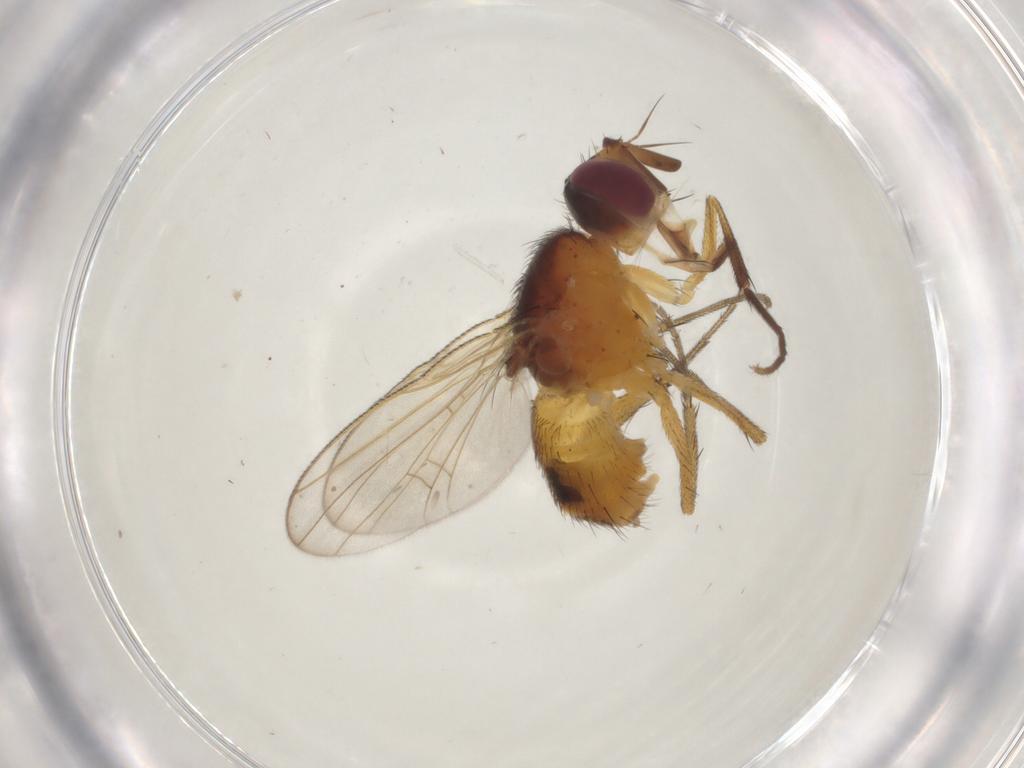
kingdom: Animalia
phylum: Arthropoda
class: Insecta
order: Diptera
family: Muscidae
